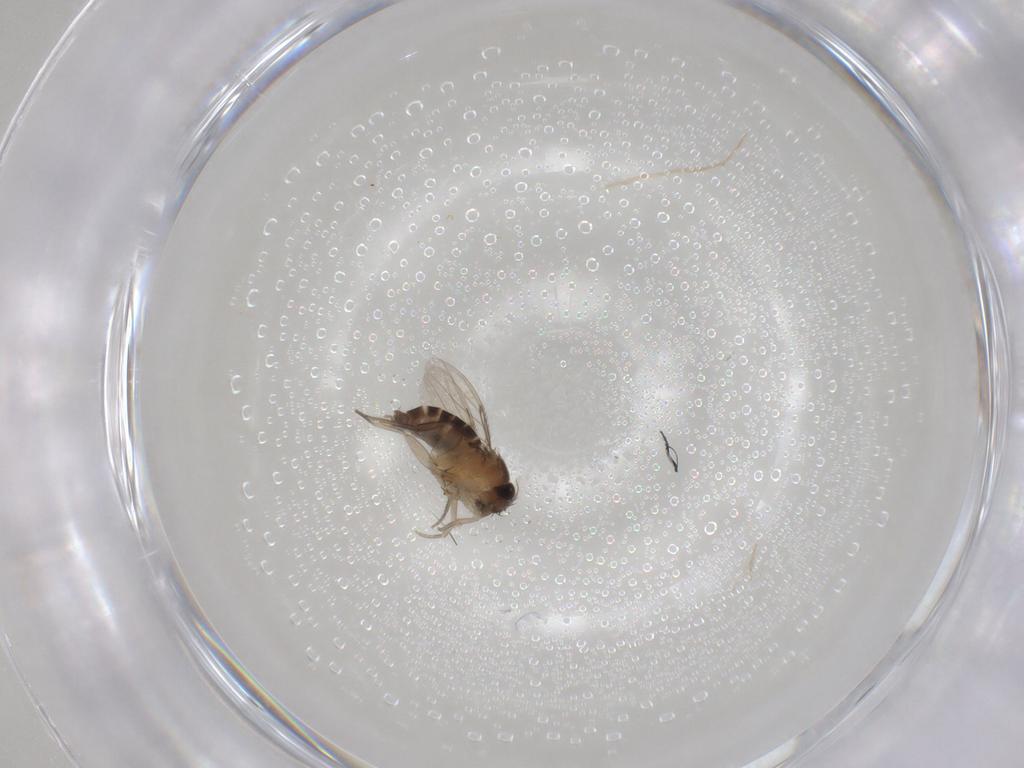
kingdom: Animalia
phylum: Arthropoda
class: Insecta
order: Diptera
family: Phoridae
